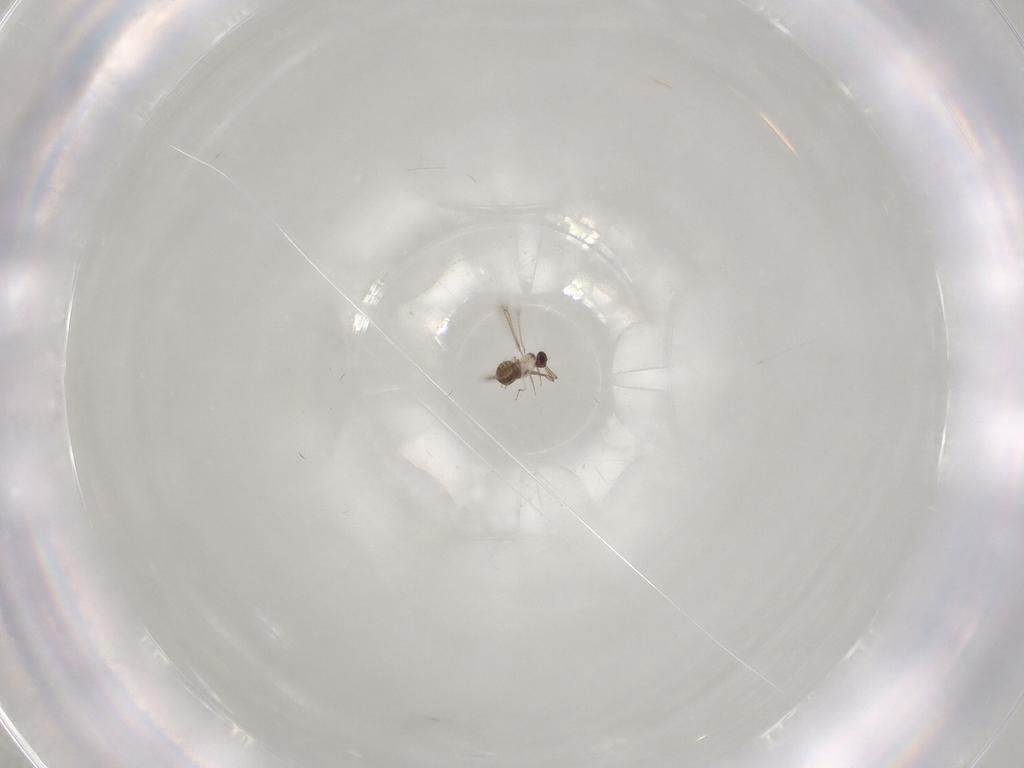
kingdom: Animalia
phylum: Arthropoda
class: Insecta
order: Hymenoptera
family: Mymaridae
